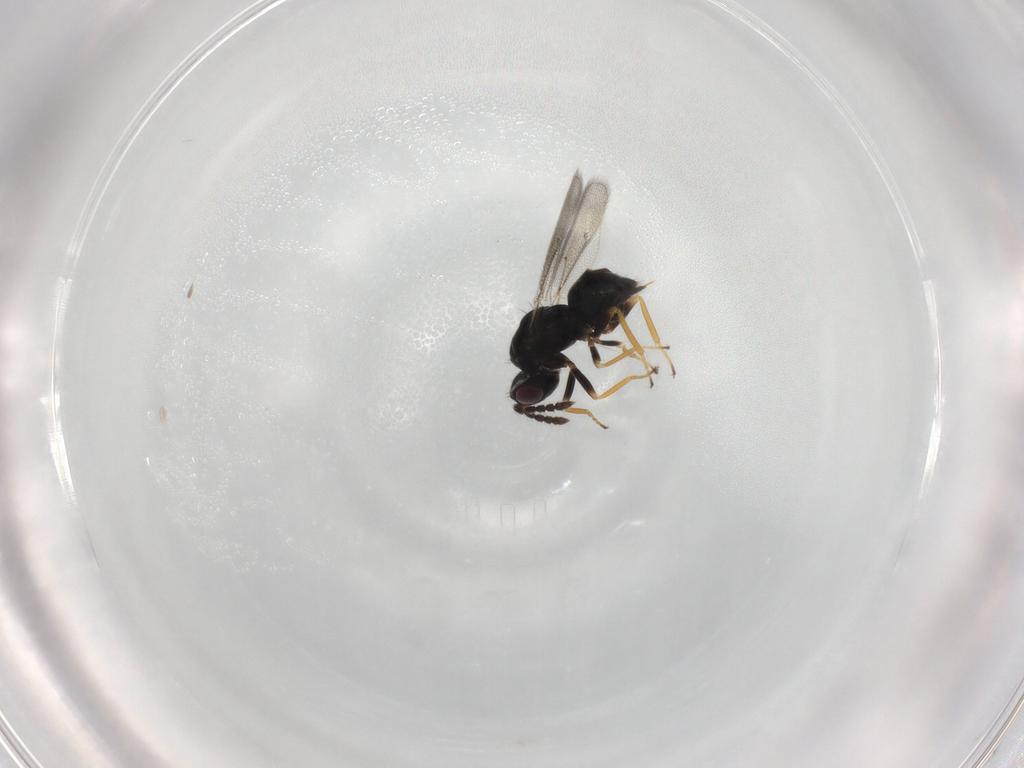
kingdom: Animalia
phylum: Arthropoda
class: Insecta
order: Hymenoptera
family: Eulophidae
